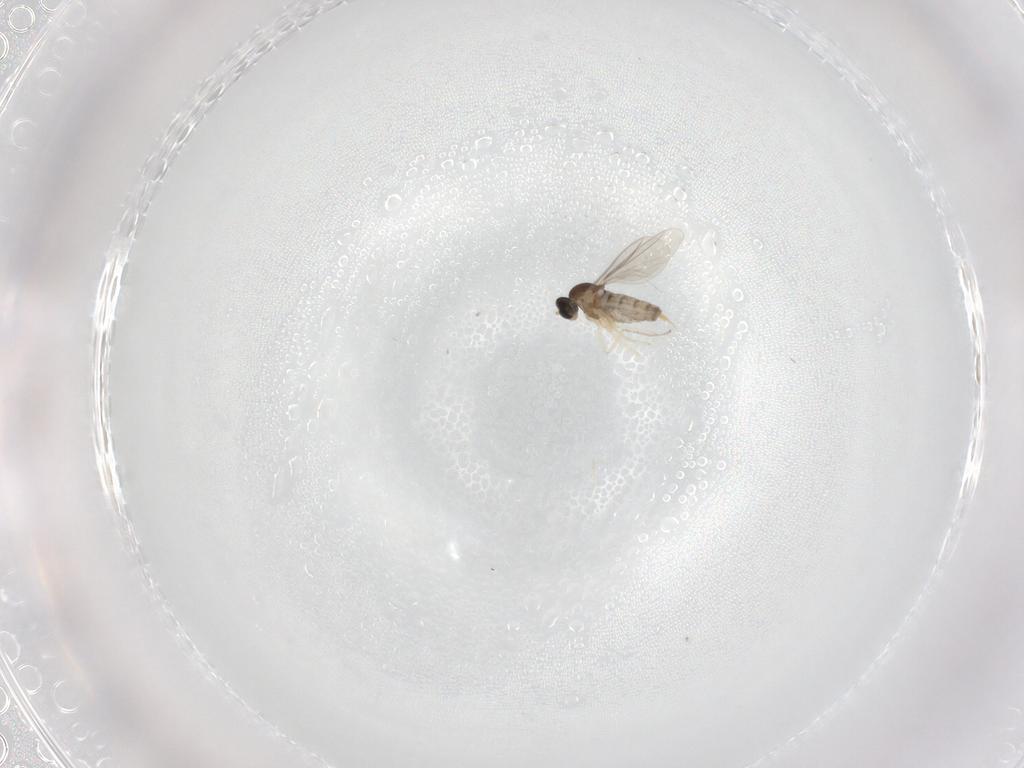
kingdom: Animalia
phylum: Arthropoda
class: Insecta
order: Diptera
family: Cecidomyiidae
